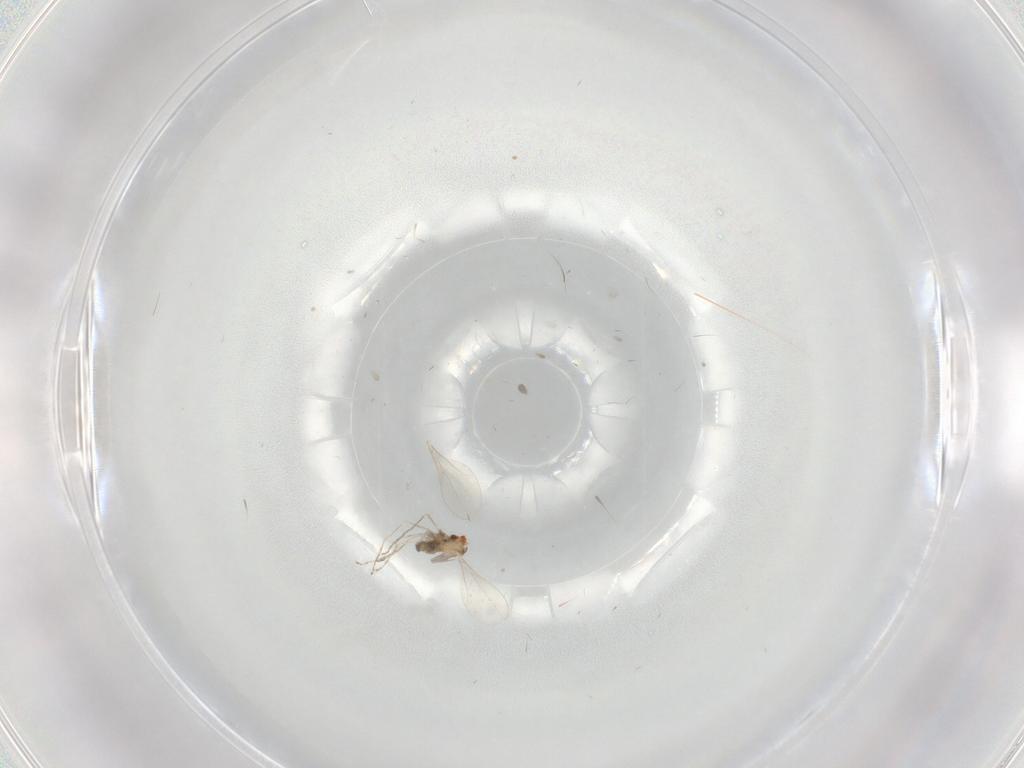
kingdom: Animalia
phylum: Arthropoda
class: Insecta
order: Diptera
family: Cecidomyiidae
